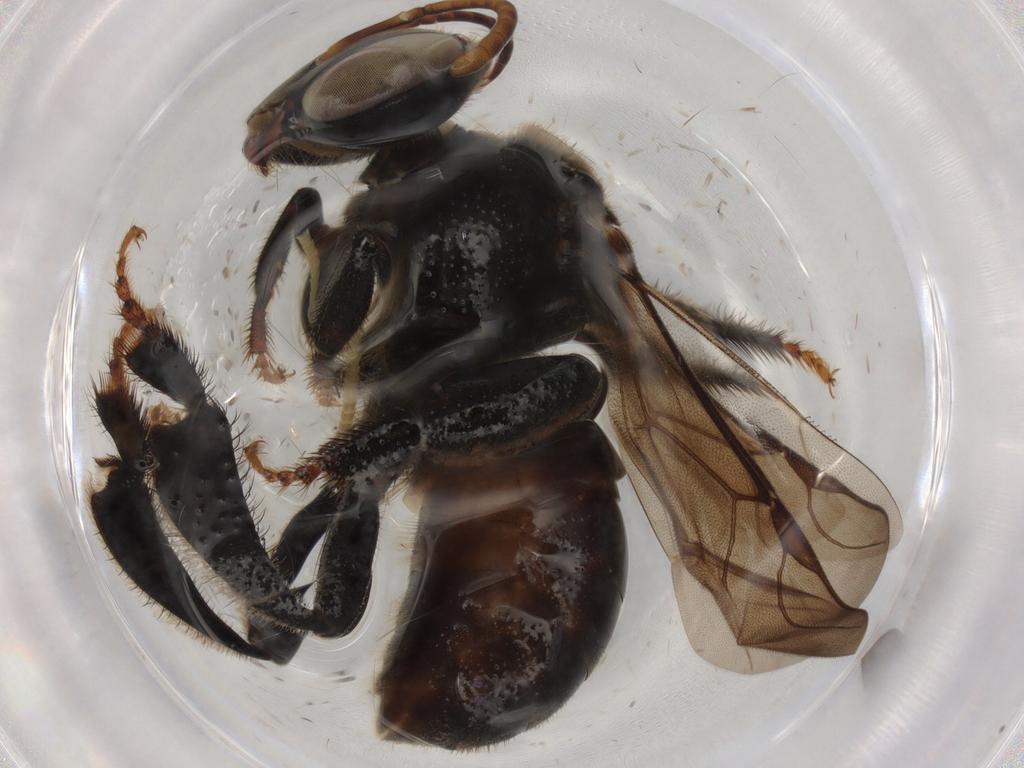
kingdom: Animalia
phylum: Arthropoda
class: Insecta
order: Hymenoptera
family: Apidae
